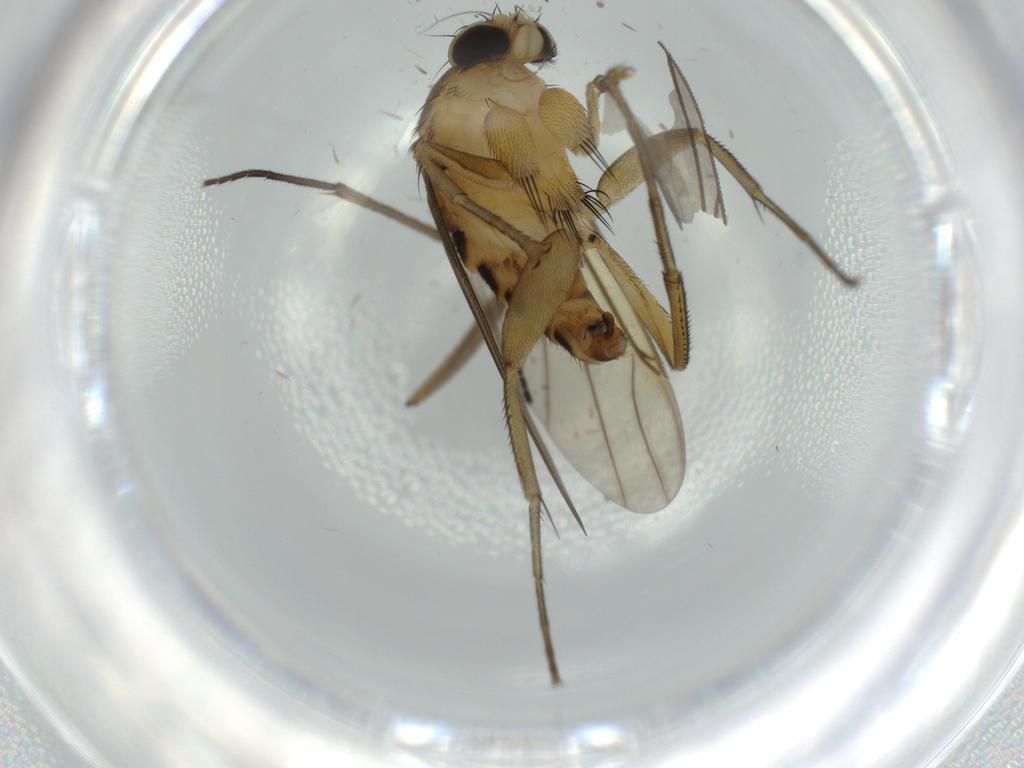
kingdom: Animalia
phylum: Arthropoda
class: Insecta
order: Diptera
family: Sciaridae
